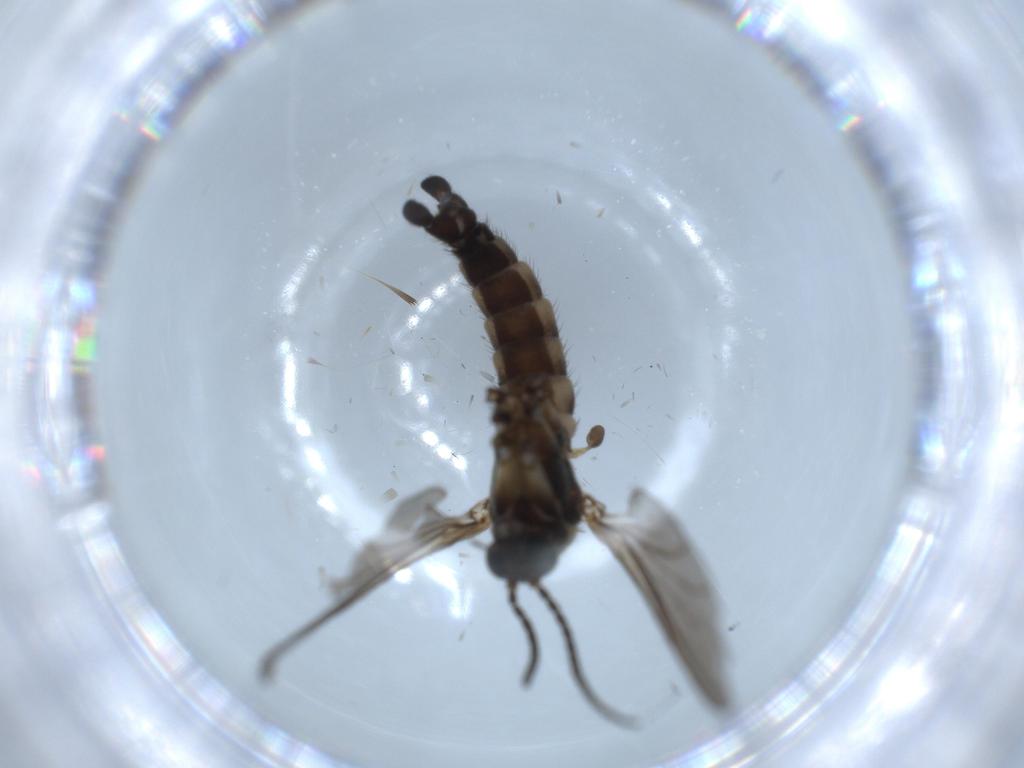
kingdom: Animalia
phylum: Arthropoda
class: Insecta
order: Diptera
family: Sciaridae
